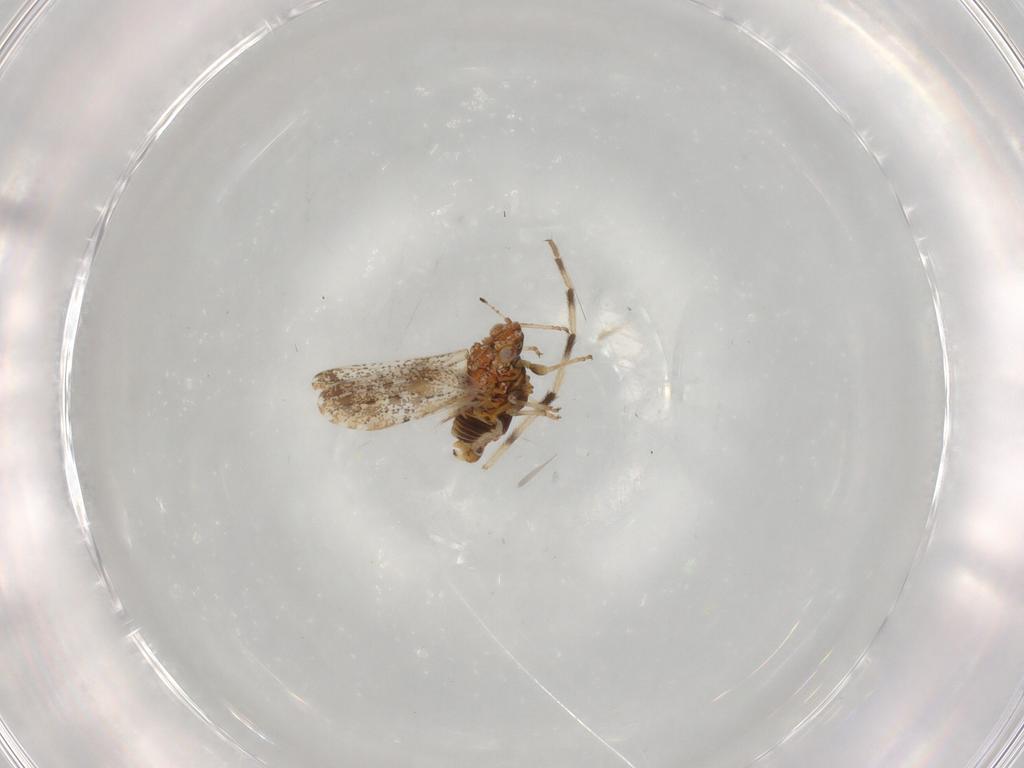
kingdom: Animalia
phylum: Arthropoda
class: Insecta
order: Diptera
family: Chironomidae
